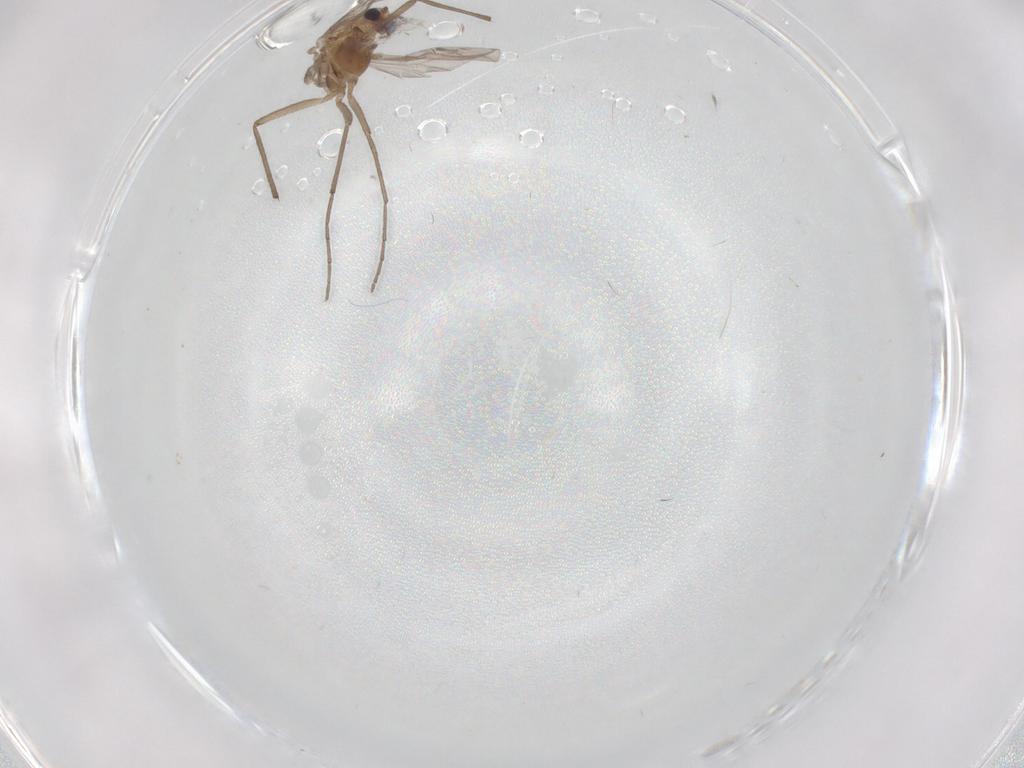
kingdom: Animalia
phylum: Arthropoda
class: Insecta
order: Diptera
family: Chironomidae
